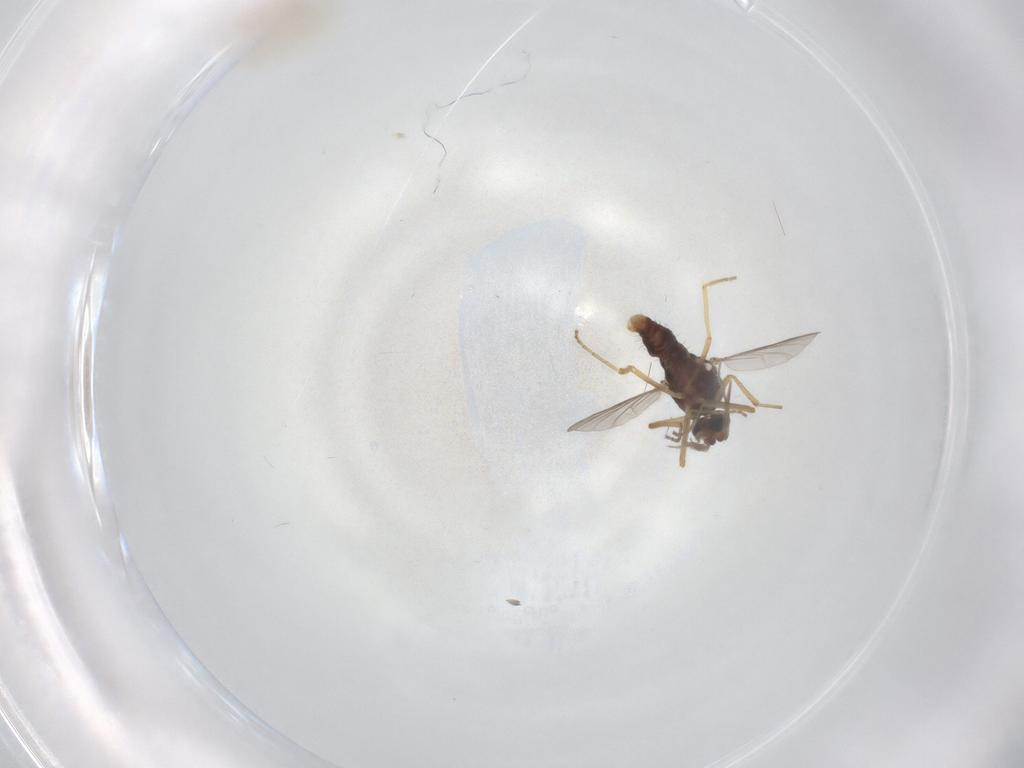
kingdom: Animalia
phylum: Arthropoda
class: Insecta
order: Diptera
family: Cecidomyiidae
